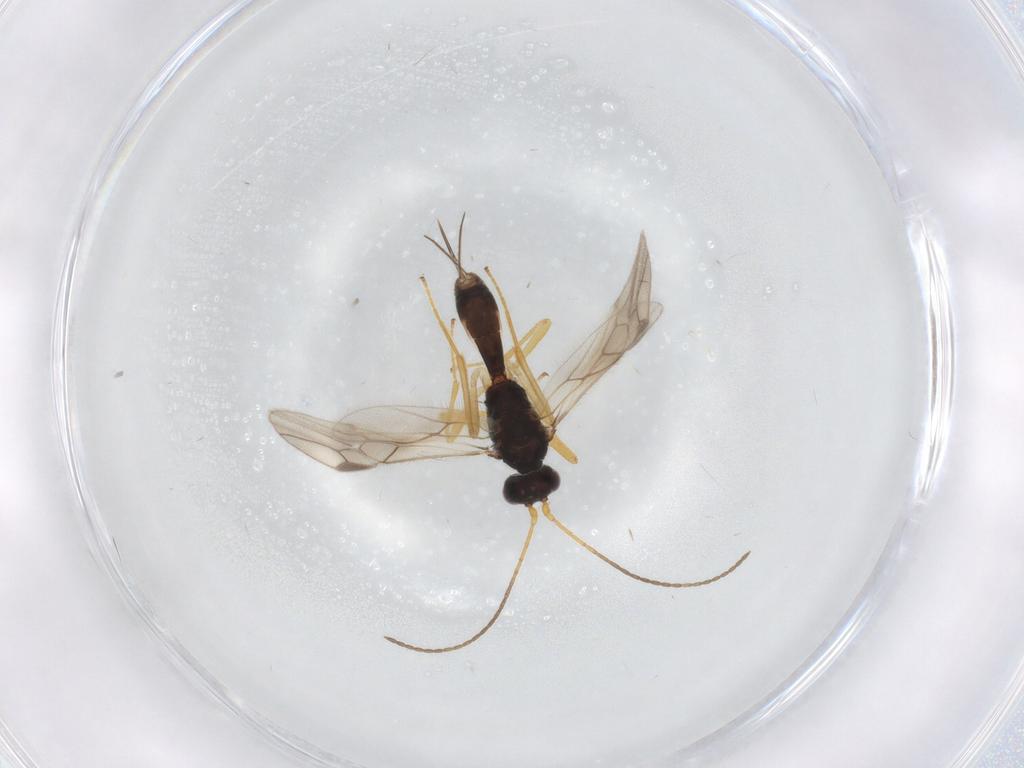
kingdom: Animalia
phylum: Arthropoda
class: Insecta
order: Hymenoptera
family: Braconidae
